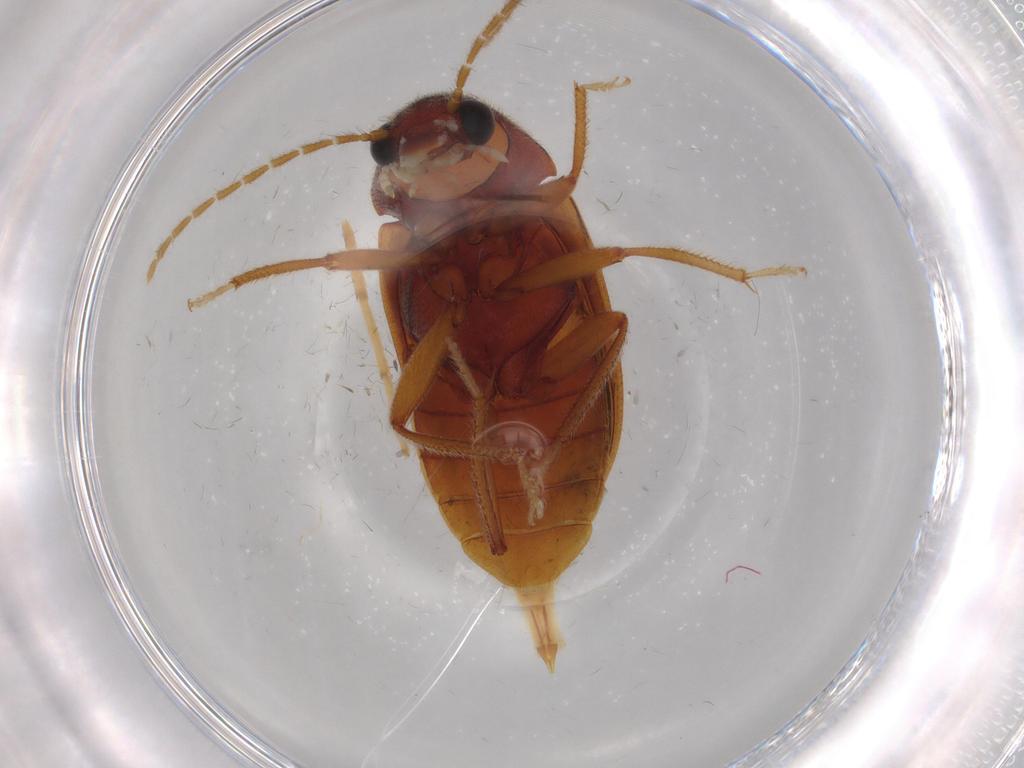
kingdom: Animalia
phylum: Arthropoda
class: Insecta
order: Coleoptera
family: Ptilodactylidae
